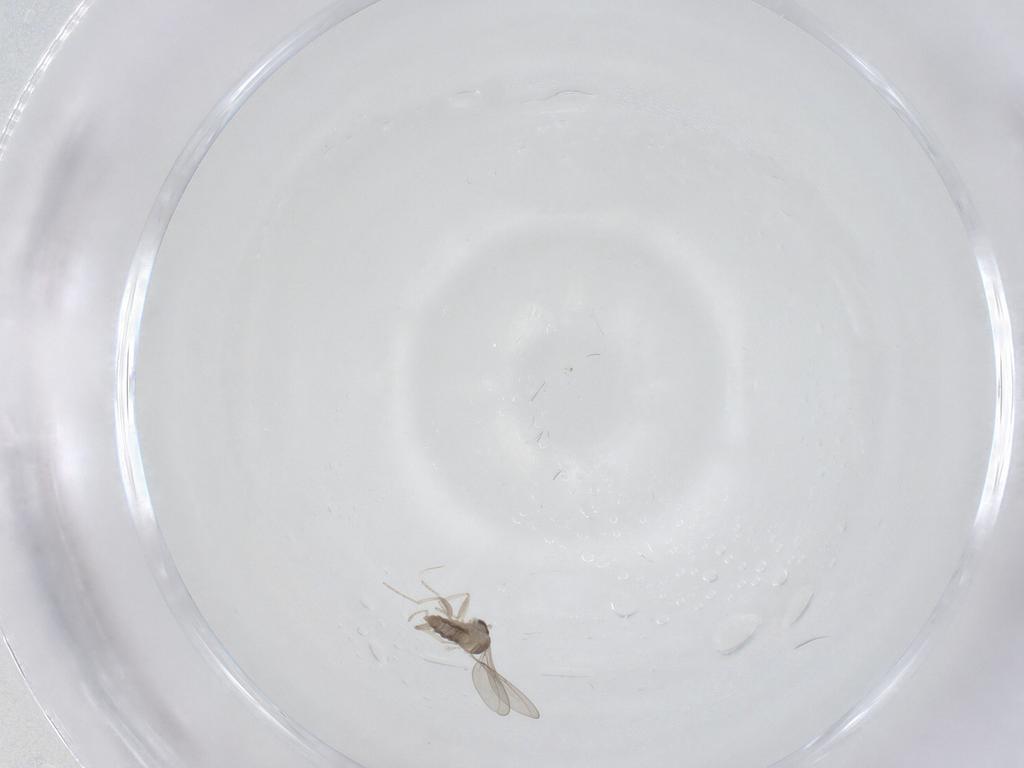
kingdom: Animalia
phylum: Arthropoda
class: Insecta
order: Diptera
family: Cecidomyiidae
